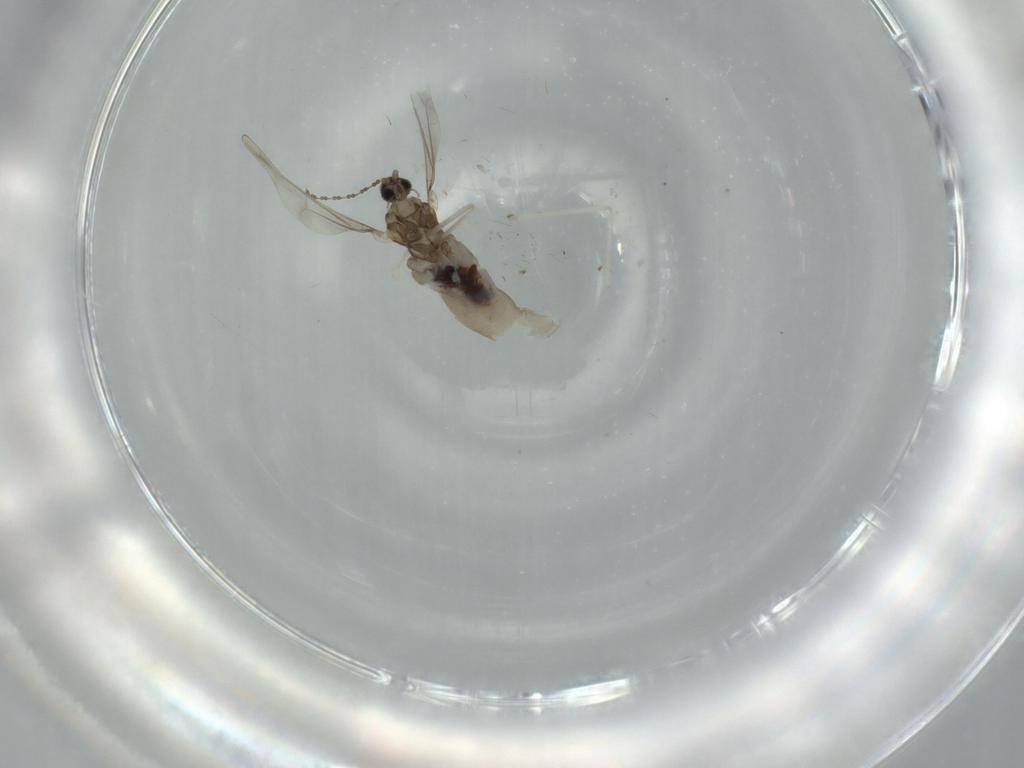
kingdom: Animalia
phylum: Arthropoda
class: Insecta
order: Diptera
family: Cecidomyiidae
